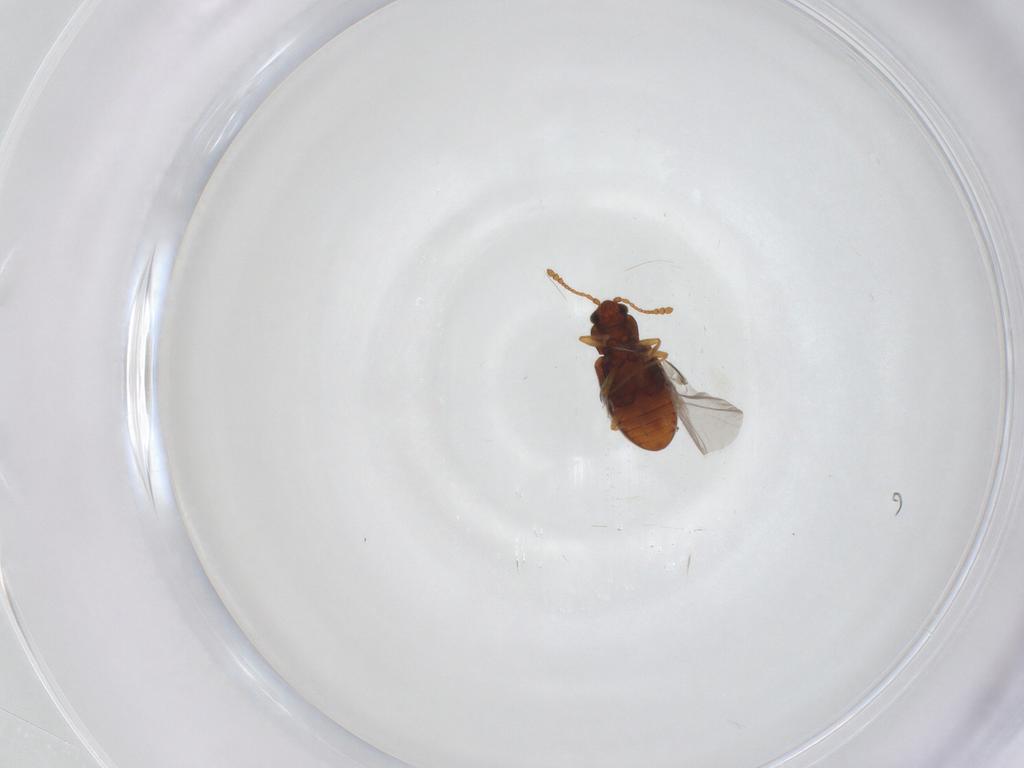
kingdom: Animalia
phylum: Arthropoda
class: Insecta
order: Coleoptera
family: Cryptophagidae
